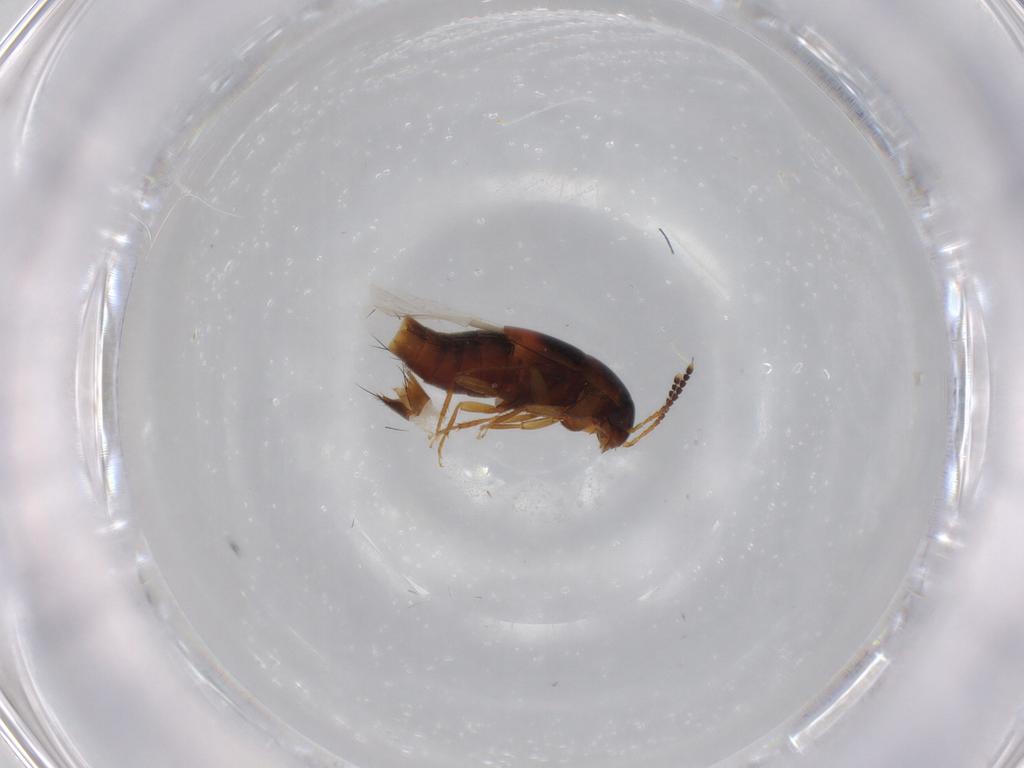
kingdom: Animalia
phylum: Arthropoda
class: Insecta
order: Coleoptera
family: Staphylinidae
